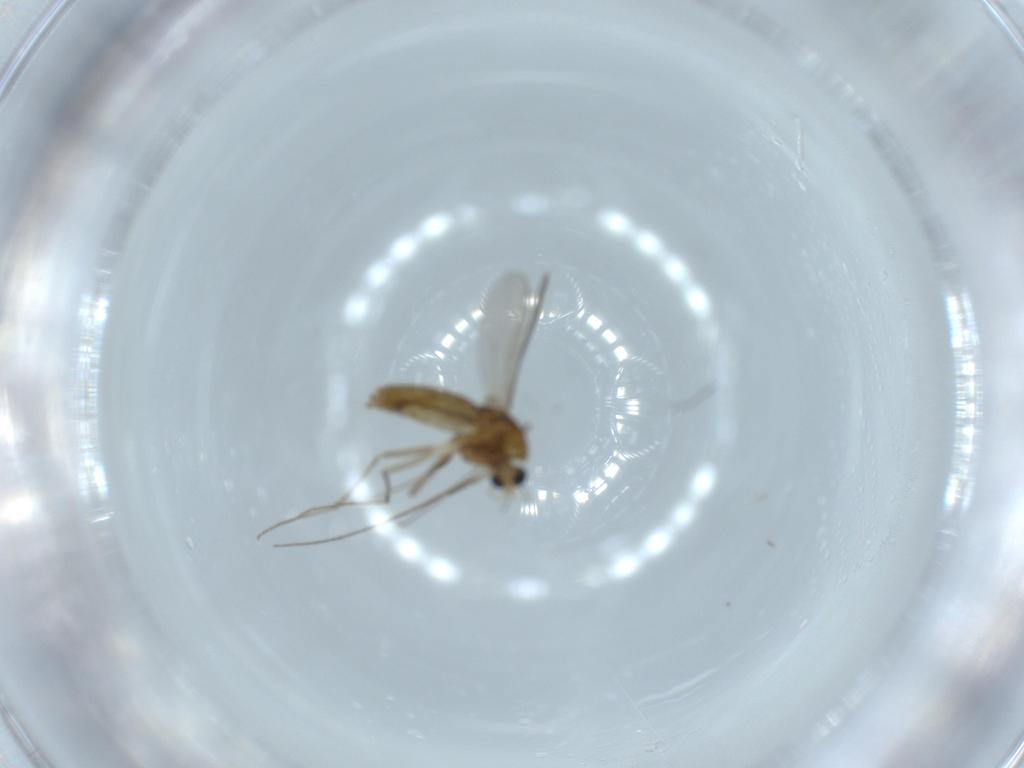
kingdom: Animalia
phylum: Arthropoda
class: Insecta
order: Diptera
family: Chironomidae
